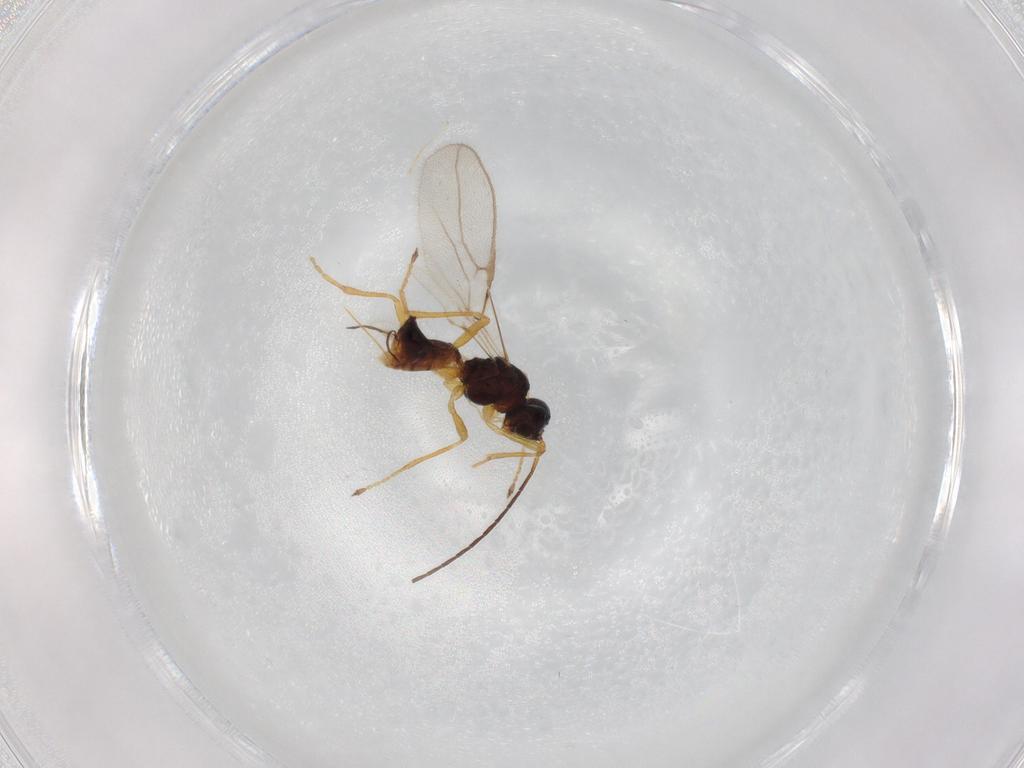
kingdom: Animalia
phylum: Arthropoda
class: Insecta
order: Hymenoptera
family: Braconidae
